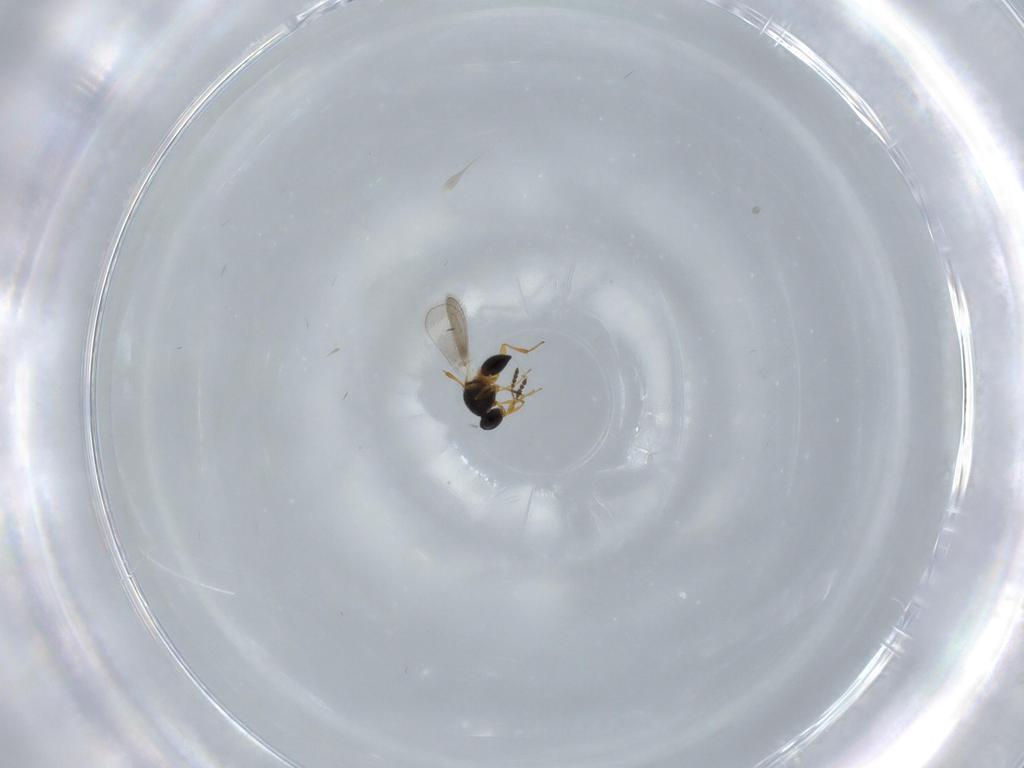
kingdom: Animalia
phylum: Arthropoda
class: Insecta
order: Hymenoptera
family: Platygastridae
